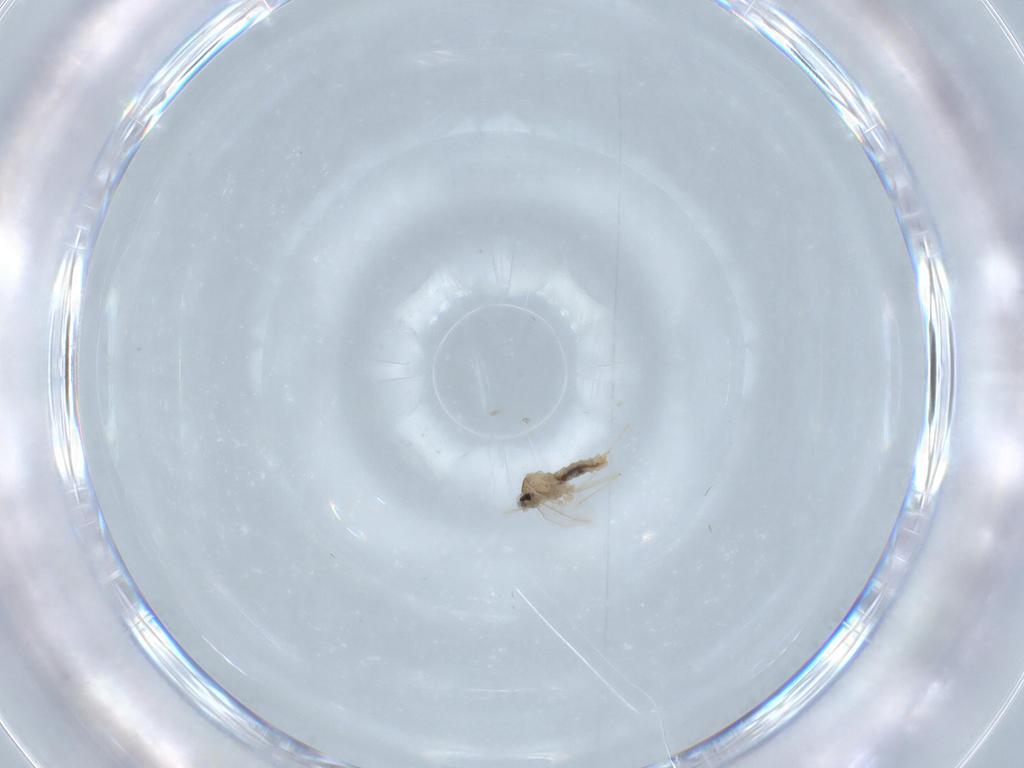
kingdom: Animalia
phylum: Arthropoda
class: Insecta
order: Diptera
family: Cecidomyiidae
